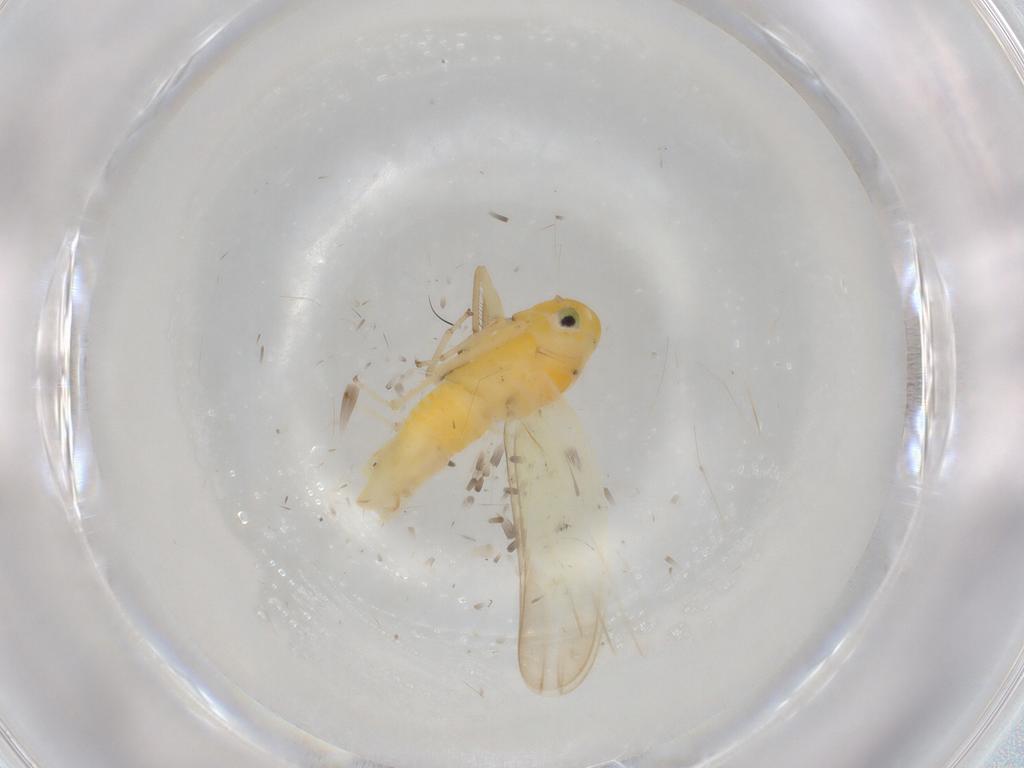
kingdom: Animalia
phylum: Arthropoda
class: Insecta
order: Hemiptera
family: Cicadellidae
